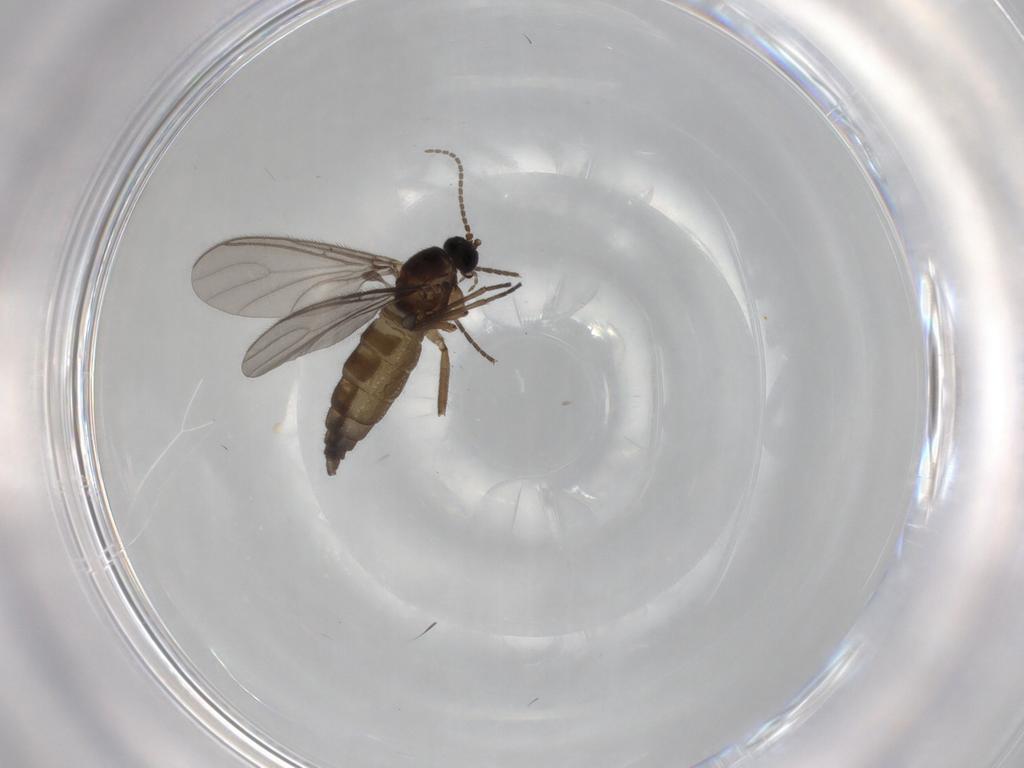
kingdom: Animalia
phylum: Arthropoda
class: Insecta
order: Diptera
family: Sciaridae
